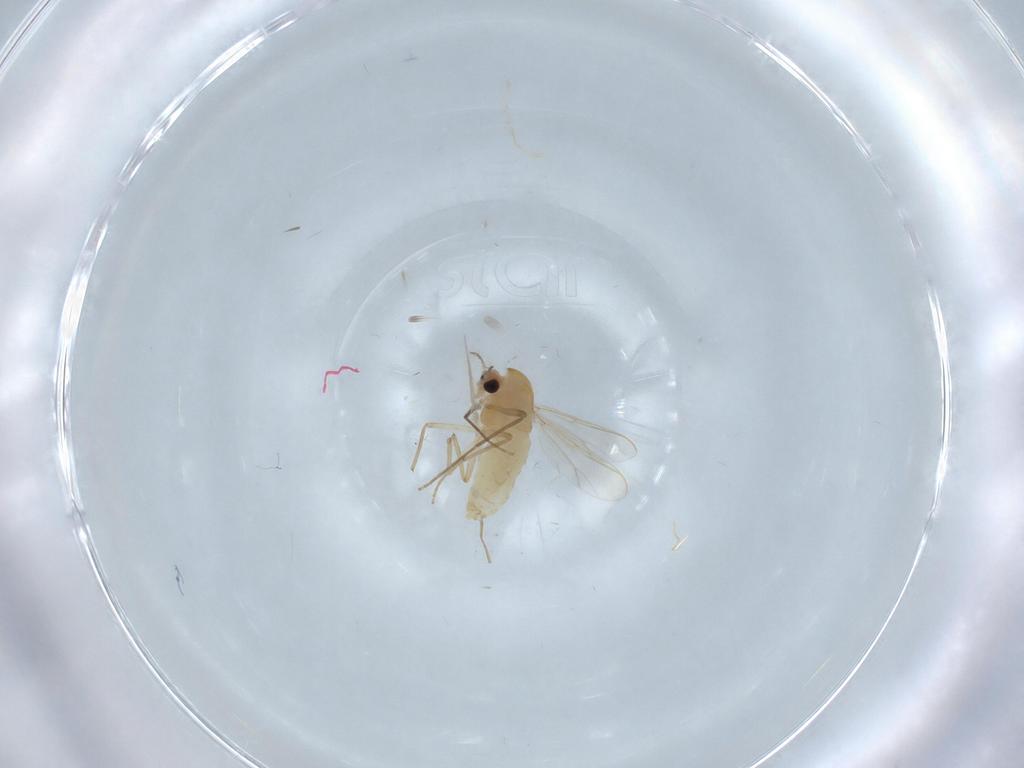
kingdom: Animalia
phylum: Arthropoda
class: Insecta
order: Diptera
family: Chironomidae
